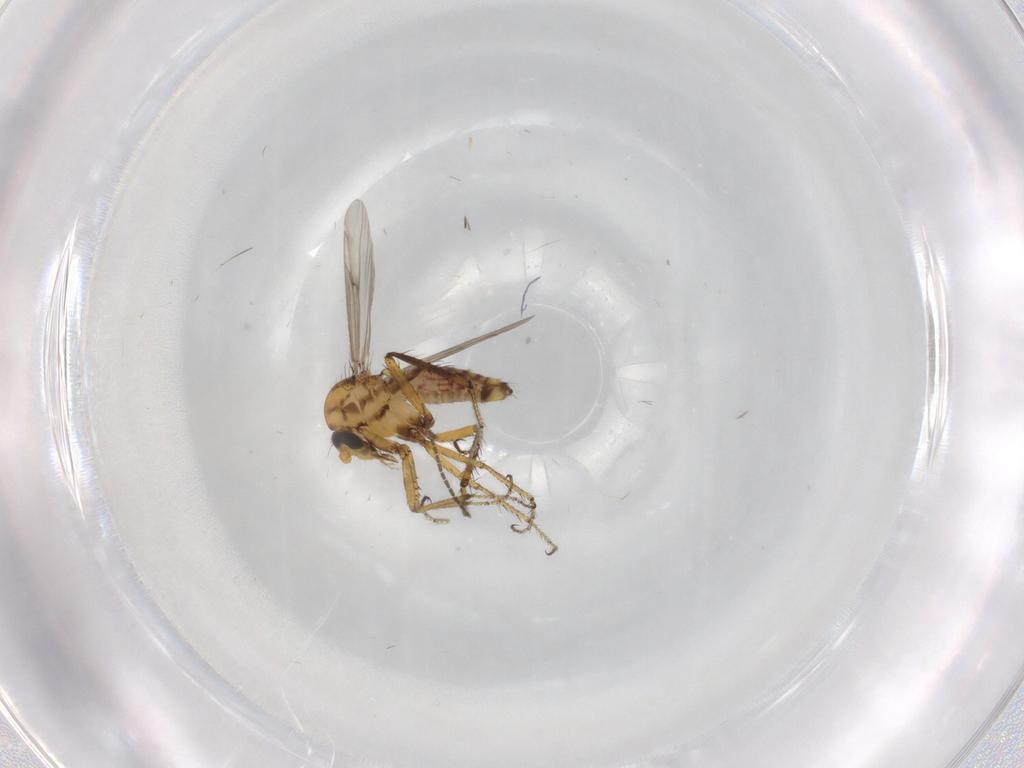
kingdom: Animalia
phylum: Arthropoda
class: Insecta
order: Diptera
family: Ceratopogonidae
